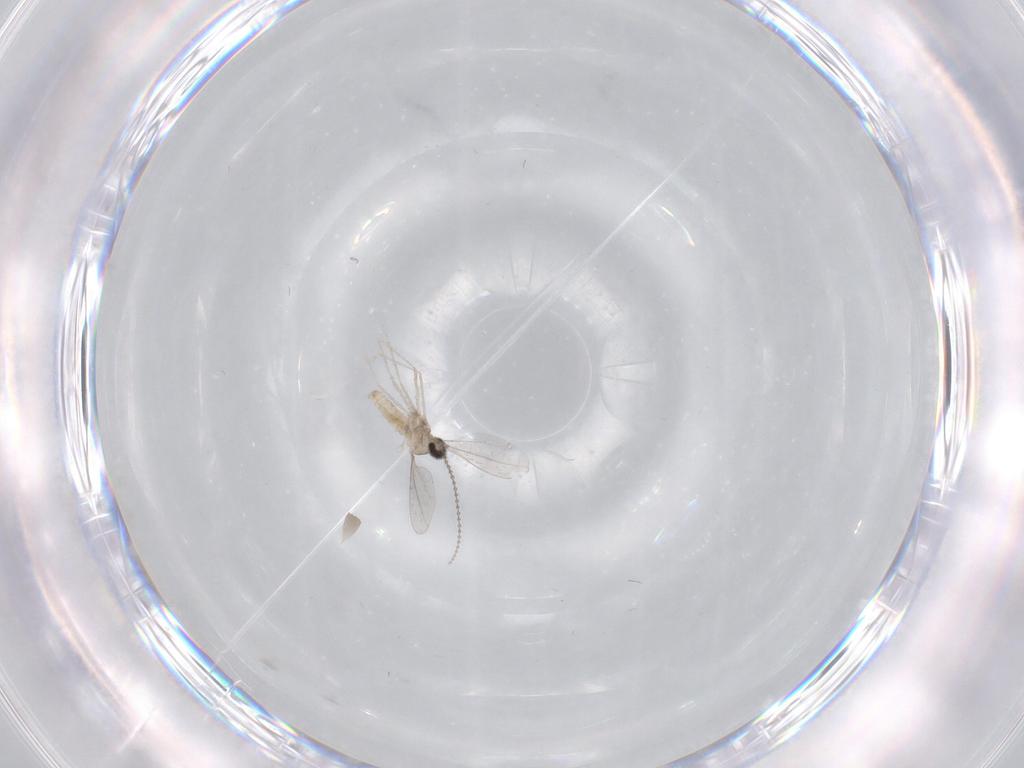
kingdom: Animalia
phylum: Arthropoda
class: Insecta
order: Diptera
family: Cecidomyiidae
